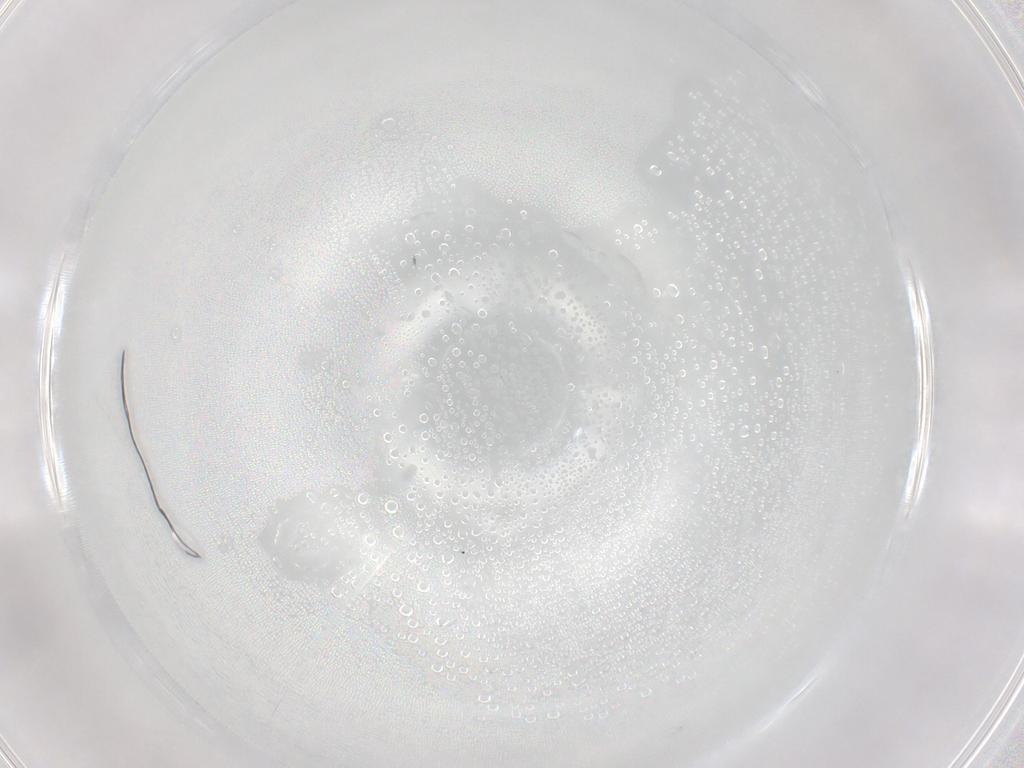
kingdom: Animalia
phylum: Arthropoda
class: Insecta
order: Diptera
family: Chironomidae
